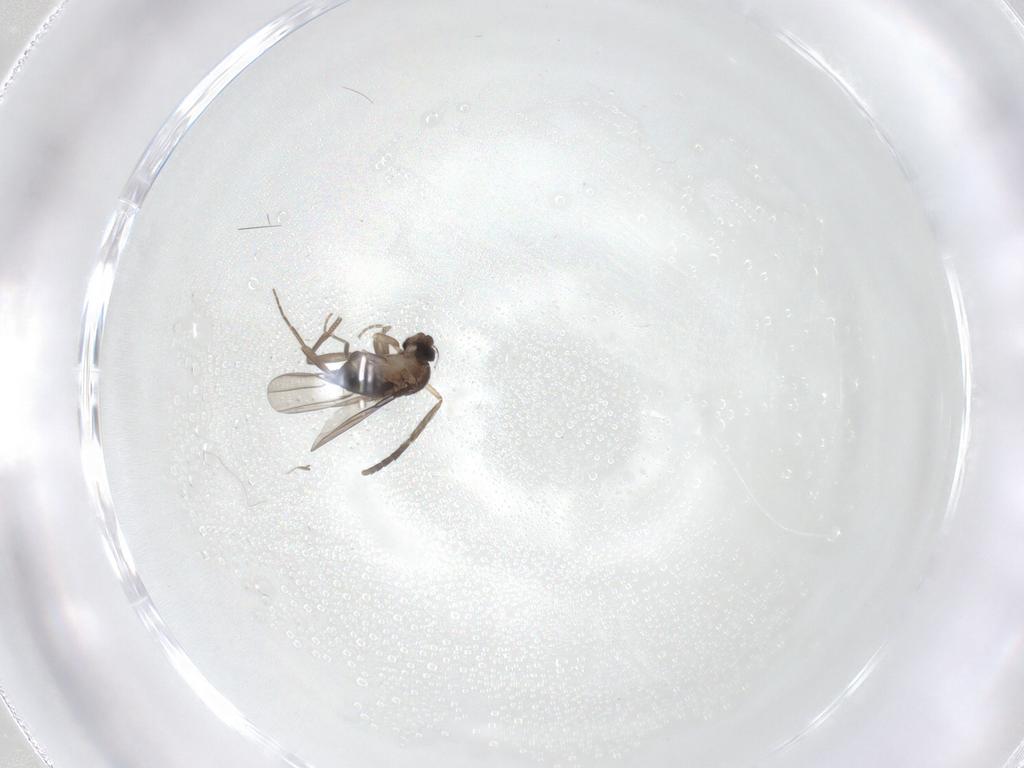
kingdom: Animalia
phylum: Arthropoda
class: Insecta
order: Diptera
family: Phoridae
